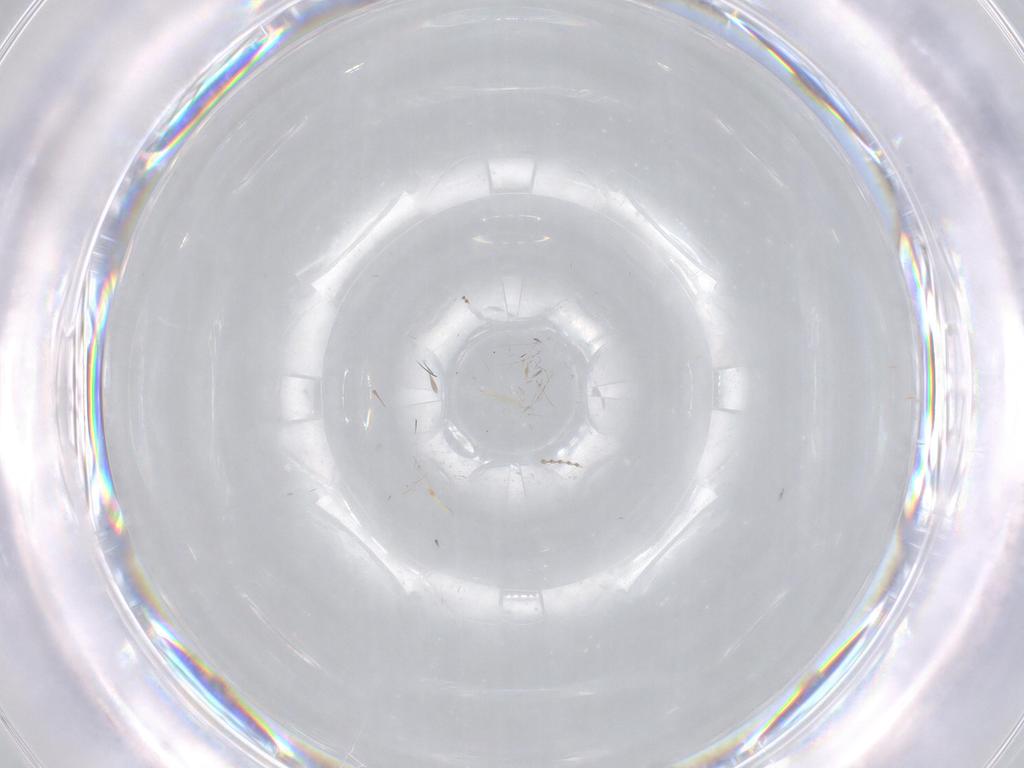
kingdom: Animalia
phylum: Arthropoda
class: Insecta
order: Diptera
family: Cecidomyiidae
